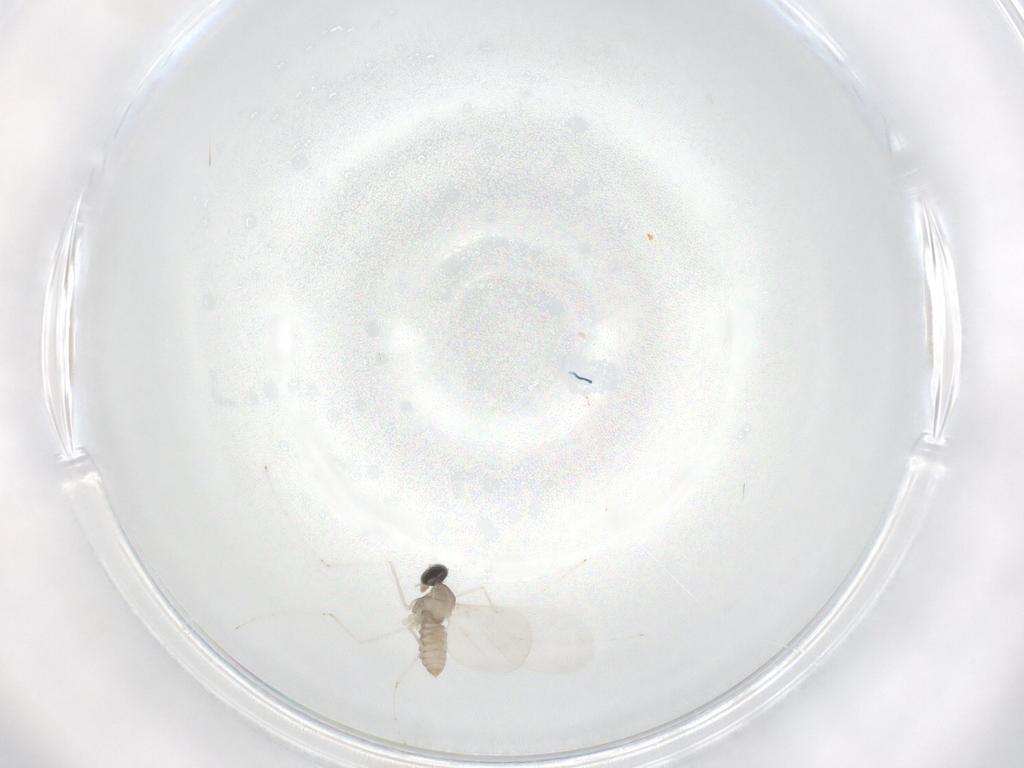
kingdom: Animalia
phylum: Arthropoda
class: Insecta
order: Diptera
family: Cecidomyiidae
